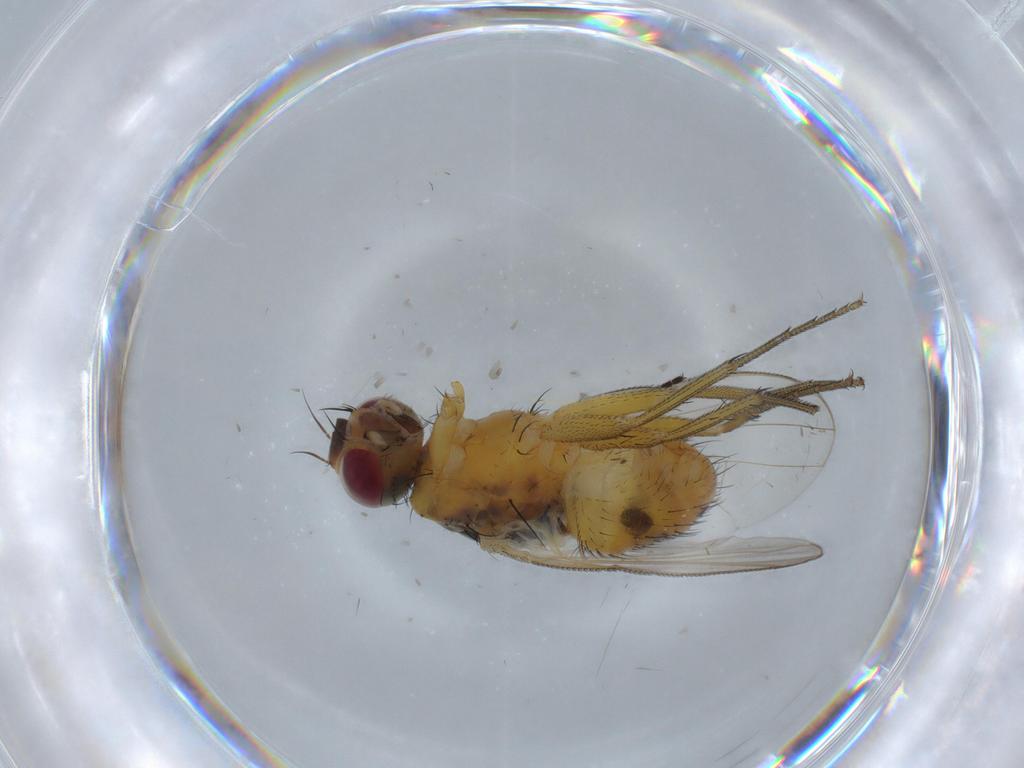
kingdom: Animalia
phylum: Arthropoda
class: Insecta
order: Diptera
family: Muscidae
